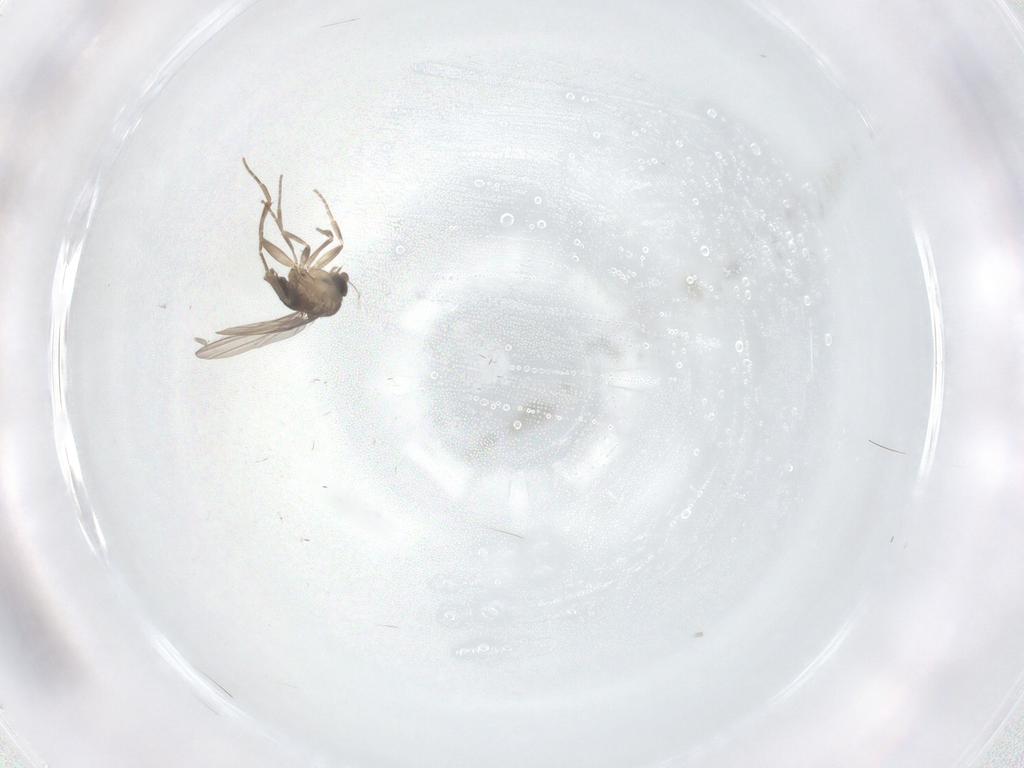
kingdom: Animalia
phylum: Arthropoda
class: Insecta
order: Diptera
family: Phoridae
